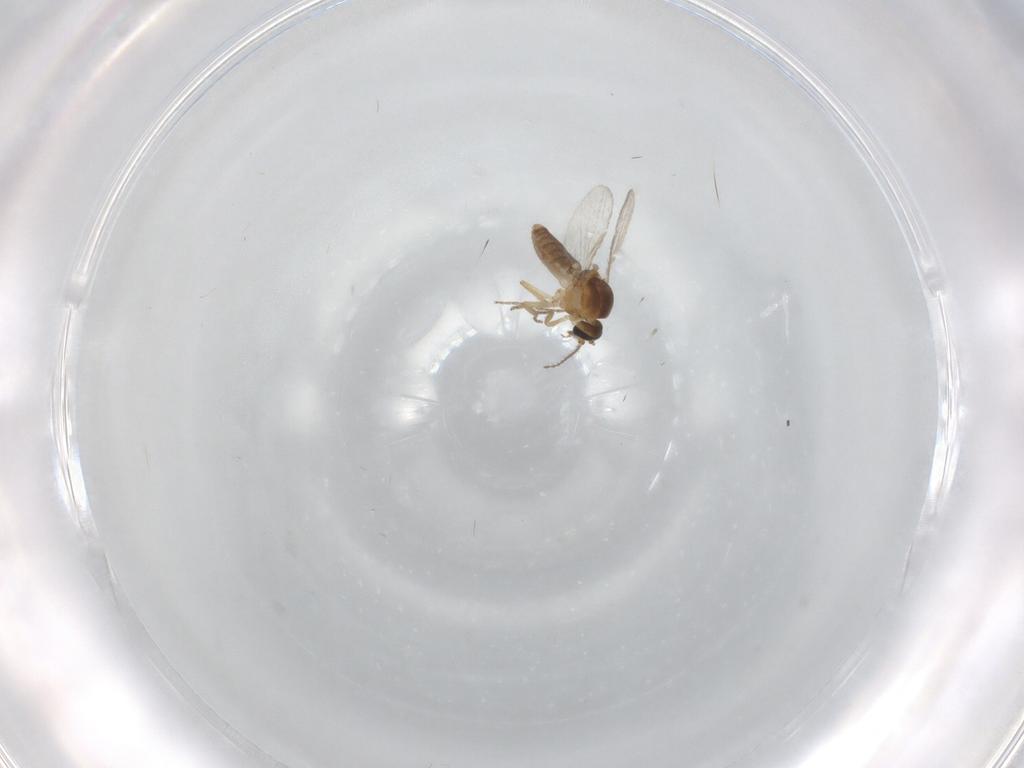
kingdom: Animalia
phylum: Arthropoda
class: Insecta
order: Diptera
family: Ceratopogonidae
